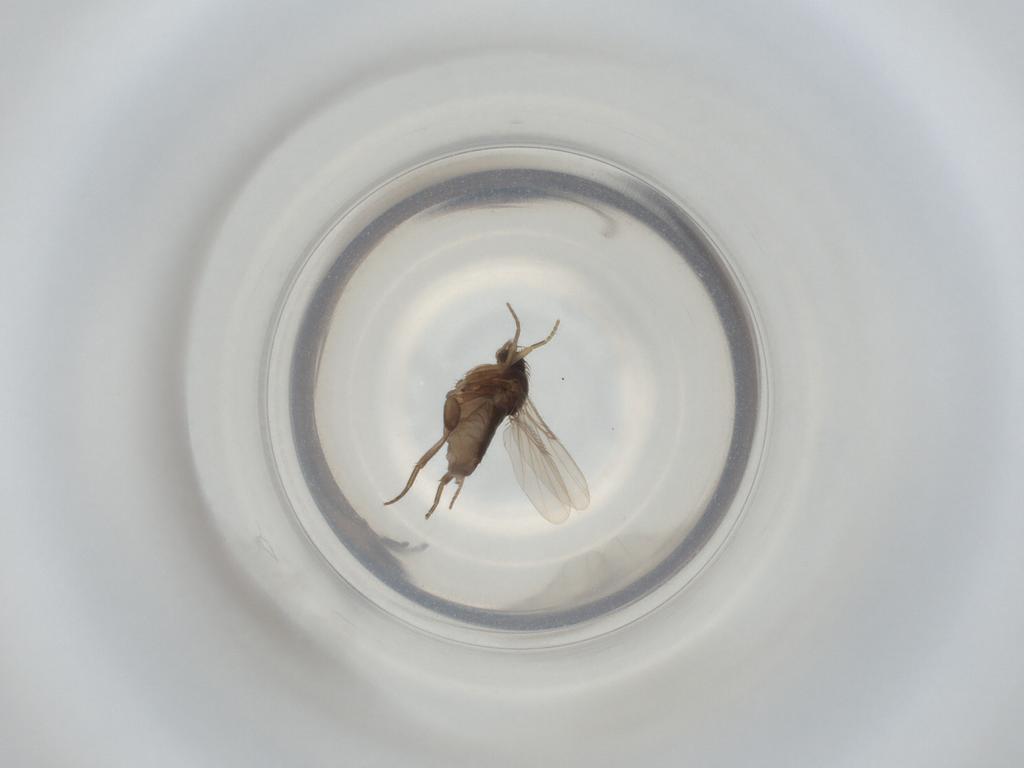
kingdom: Animalia
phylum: Arthropoda
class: Insecta
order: Diptera
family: Phoridae
